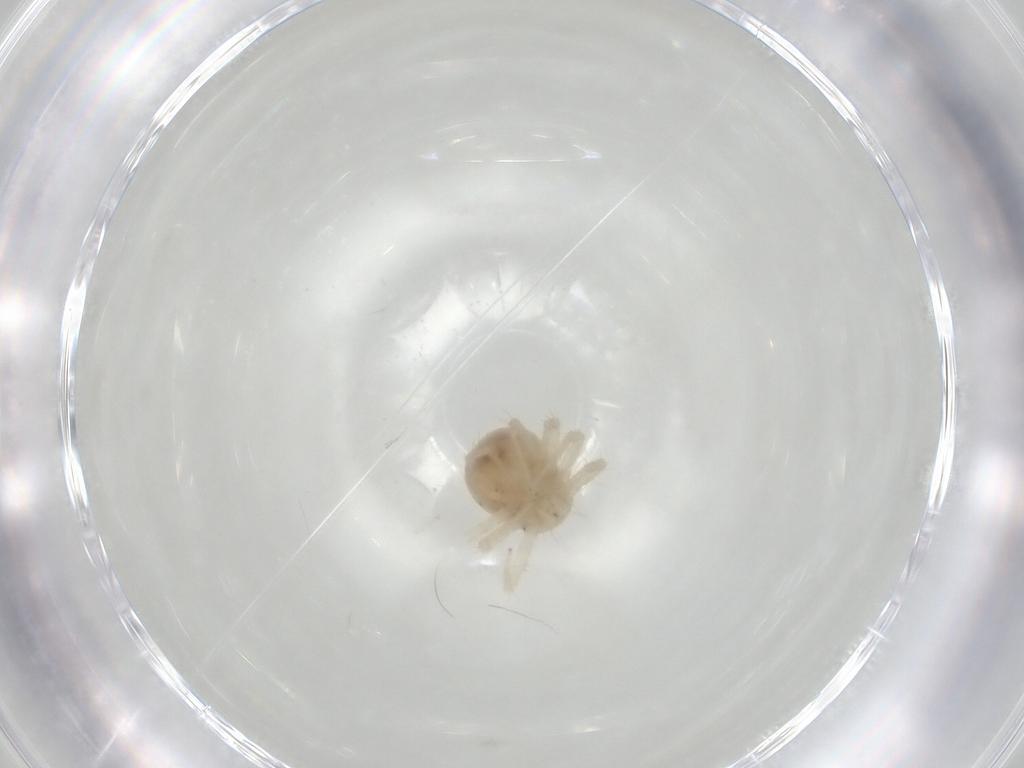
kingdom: Animalia
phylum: Arthropoda
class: Arachnida
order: Trombidiformes
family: Anystidae
